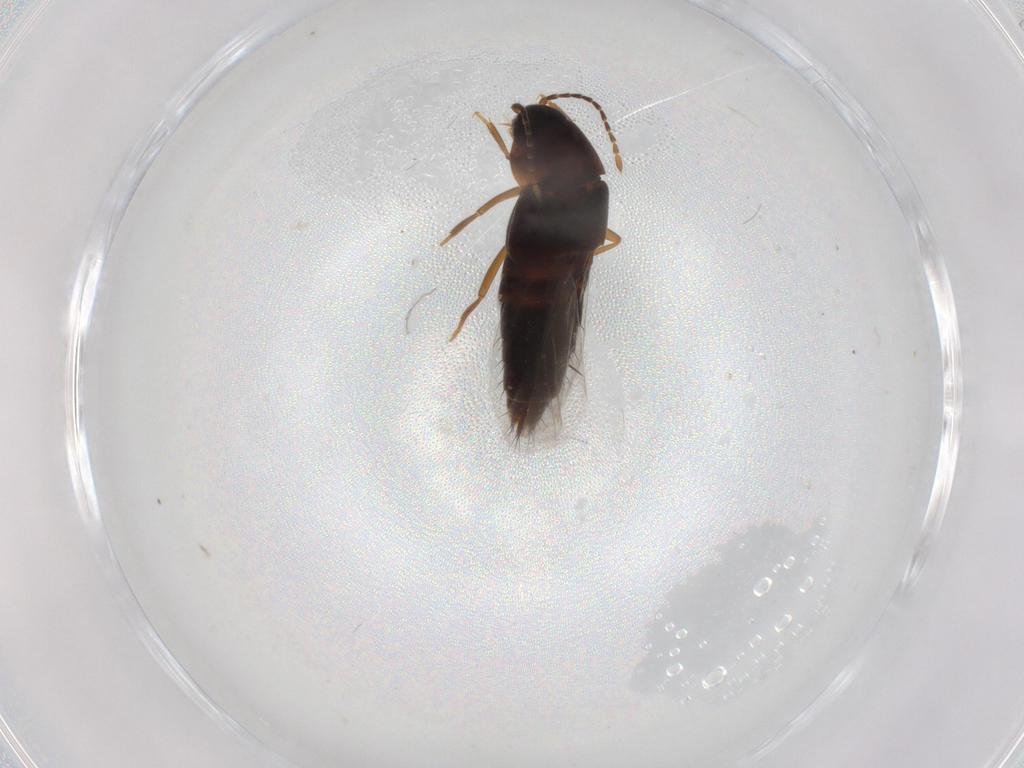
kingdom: Animalia
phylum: Arthropoda
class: Insecta
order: Coleoptera
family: Staphylinidae
